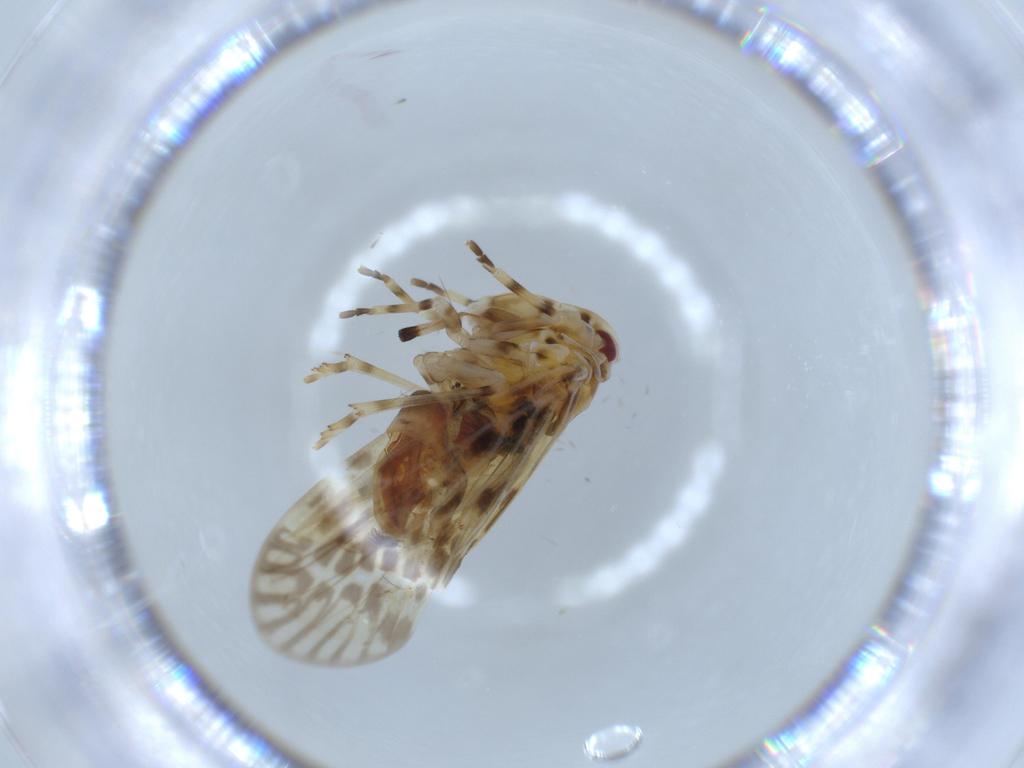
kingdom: Animalia
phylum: Arthropoda
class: Insecta
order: Hemiptera
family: Derbidae
